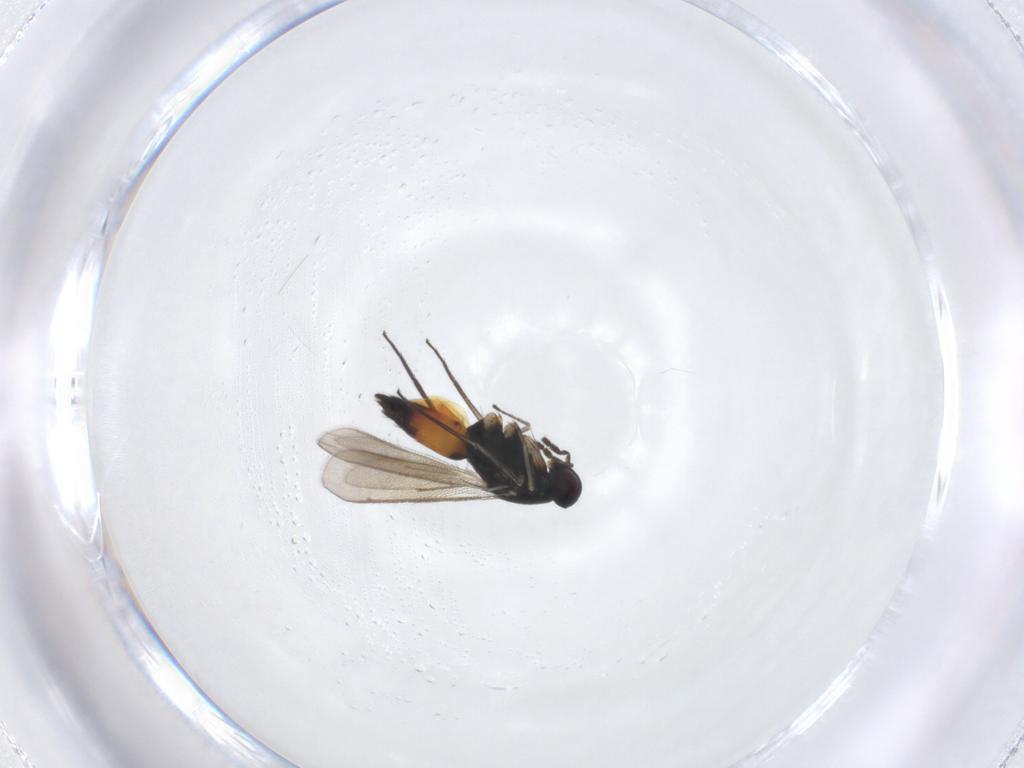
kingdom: Animalia
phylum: Arthropoda
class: Insecta
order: Hymenoptera
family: Eulophidae
